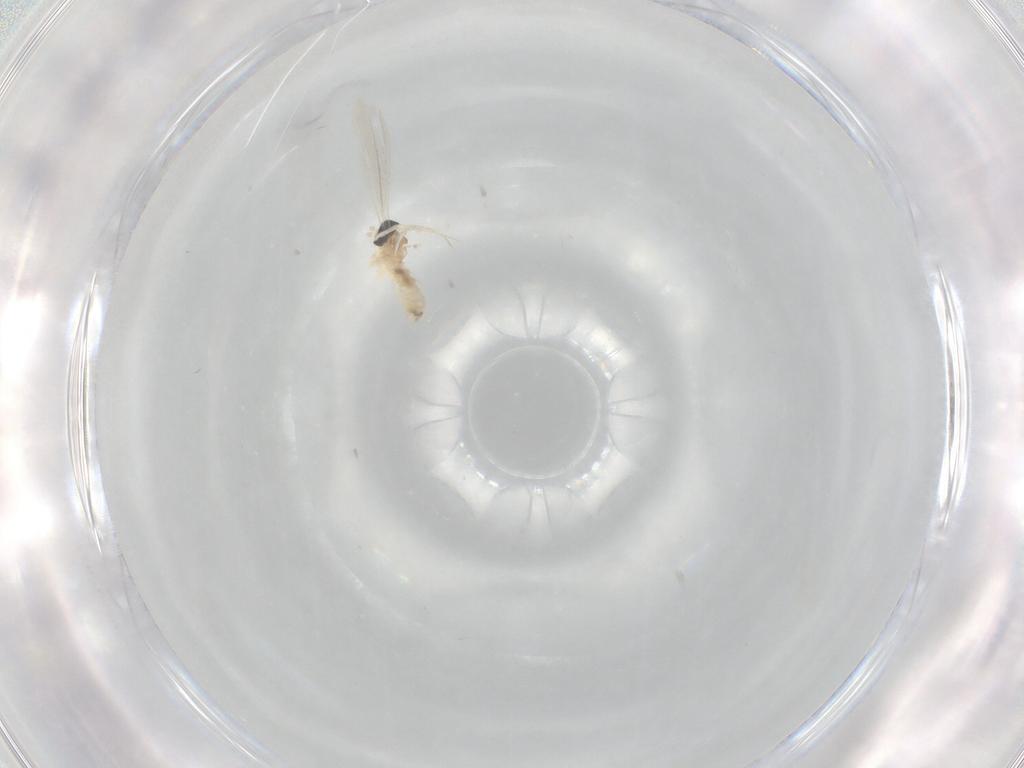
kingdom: Animalia
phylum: Arthropoda
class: Insecta
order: Diptera
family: Cecidomyiidae
